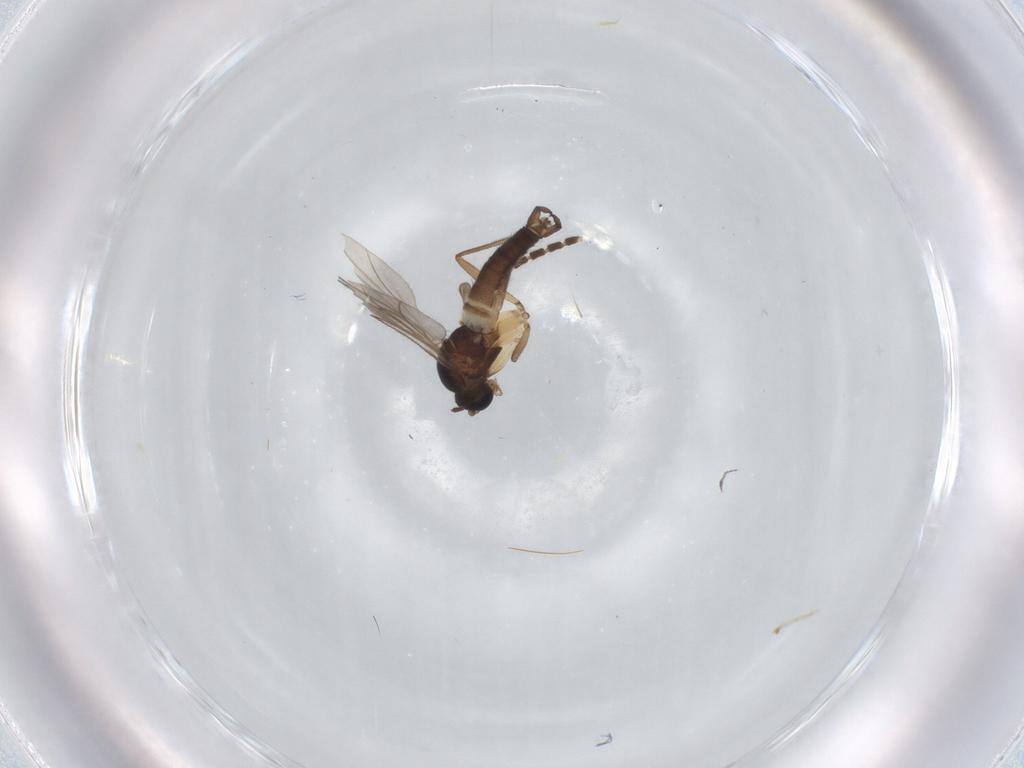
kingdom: Animalia
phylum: Arthropoda
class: Insecta
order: Diptera
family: Sciaridae
